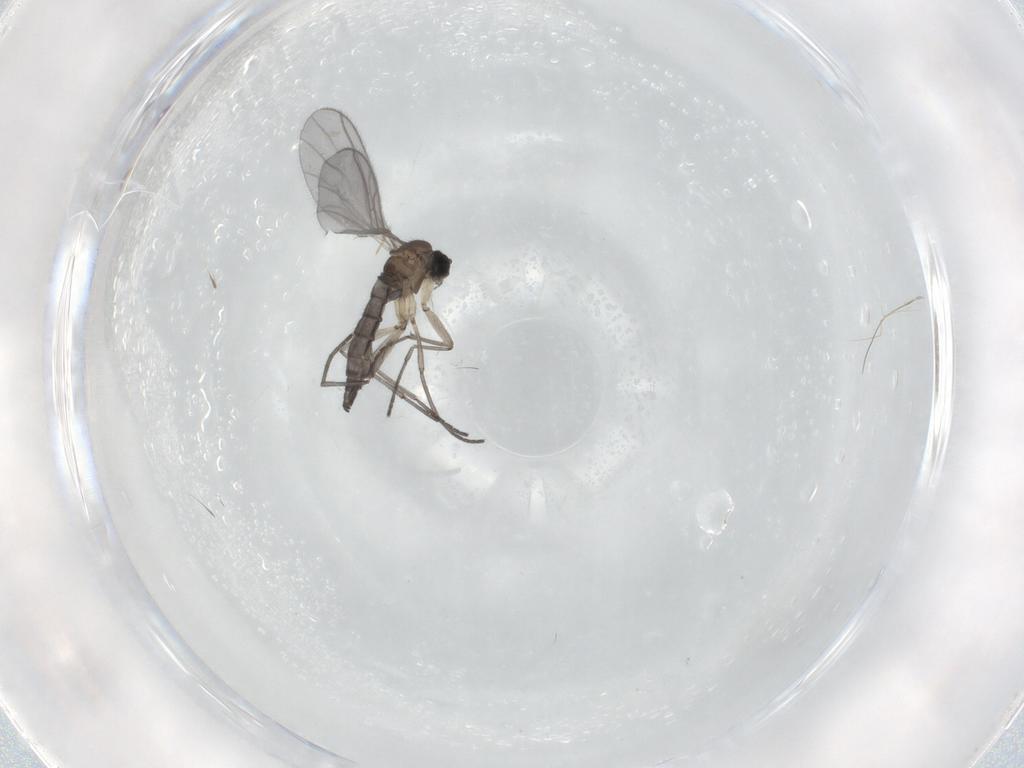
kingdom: Animalia
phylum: Arthropoda
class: Insecta
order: Diptera
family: Sciaridae
